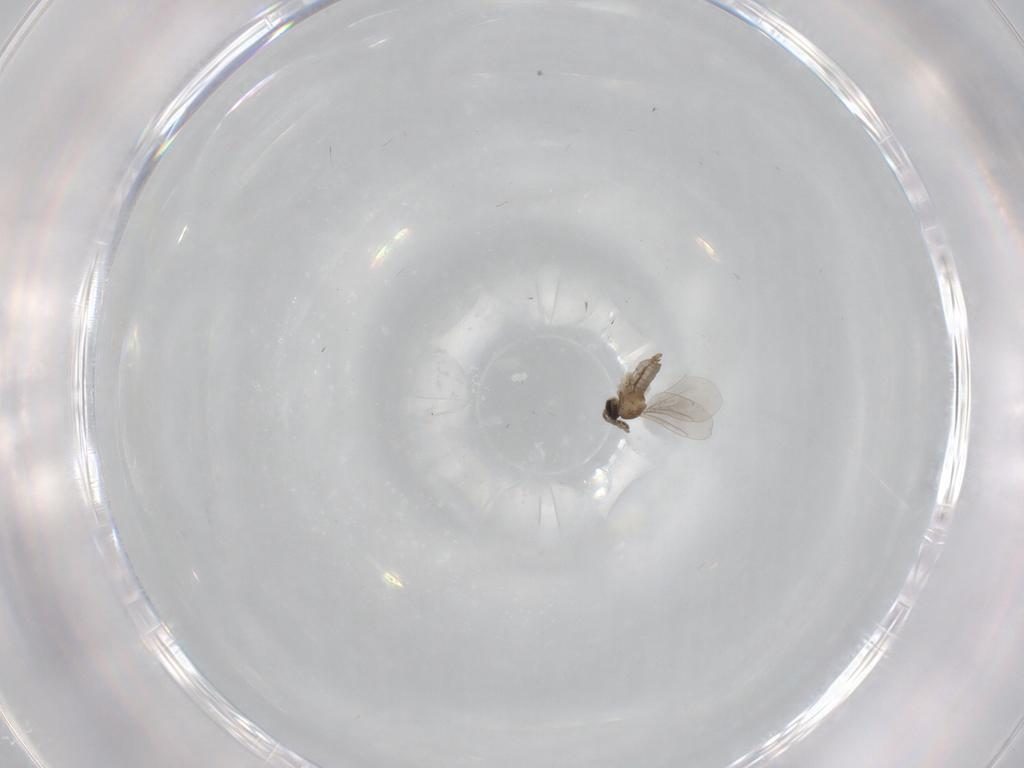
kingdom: Animalia
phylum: Arthropoda
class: Insecta
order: Diptera
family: Cecidomyiidae
